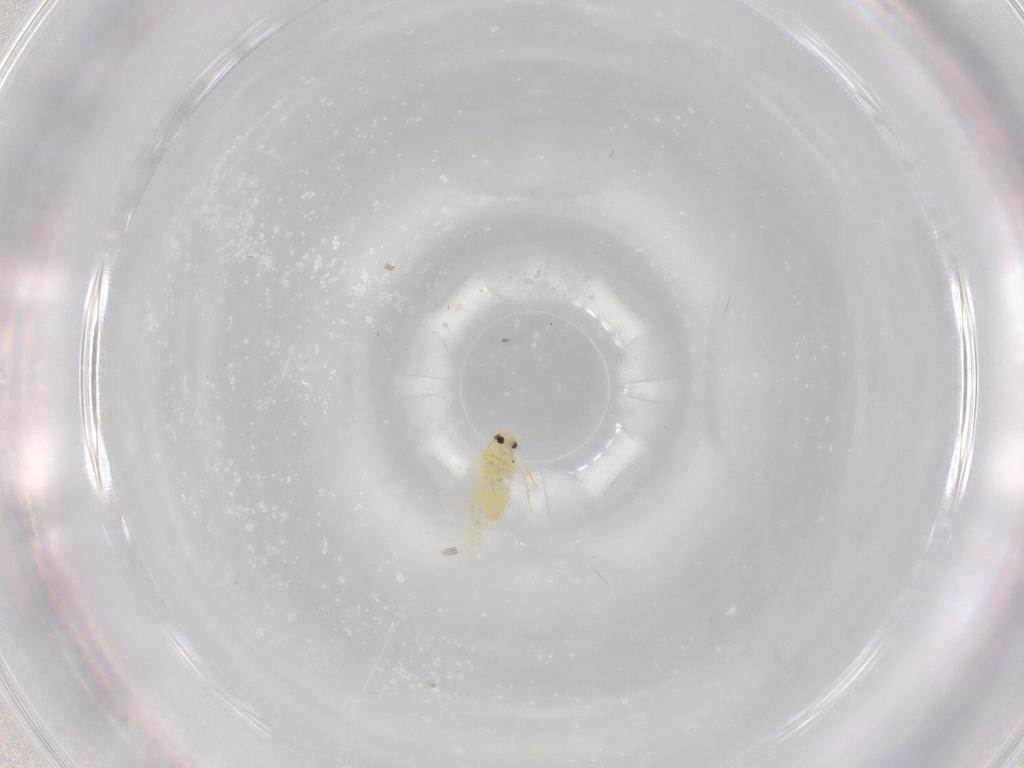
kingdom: Animalia
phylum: Arthropoda
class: Insecta
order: Hemiptera
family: Aleyrodidae
